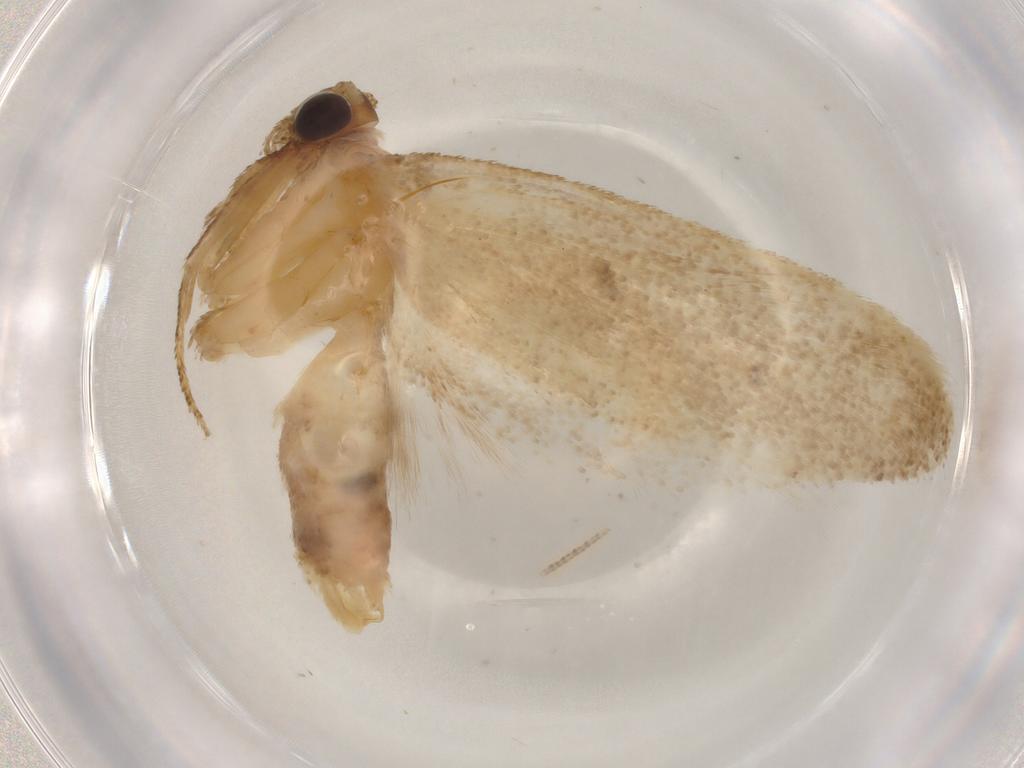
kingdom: Animalia
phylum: Arthropoda
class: Insecta
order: Lepidoptera
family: Autostichidae
